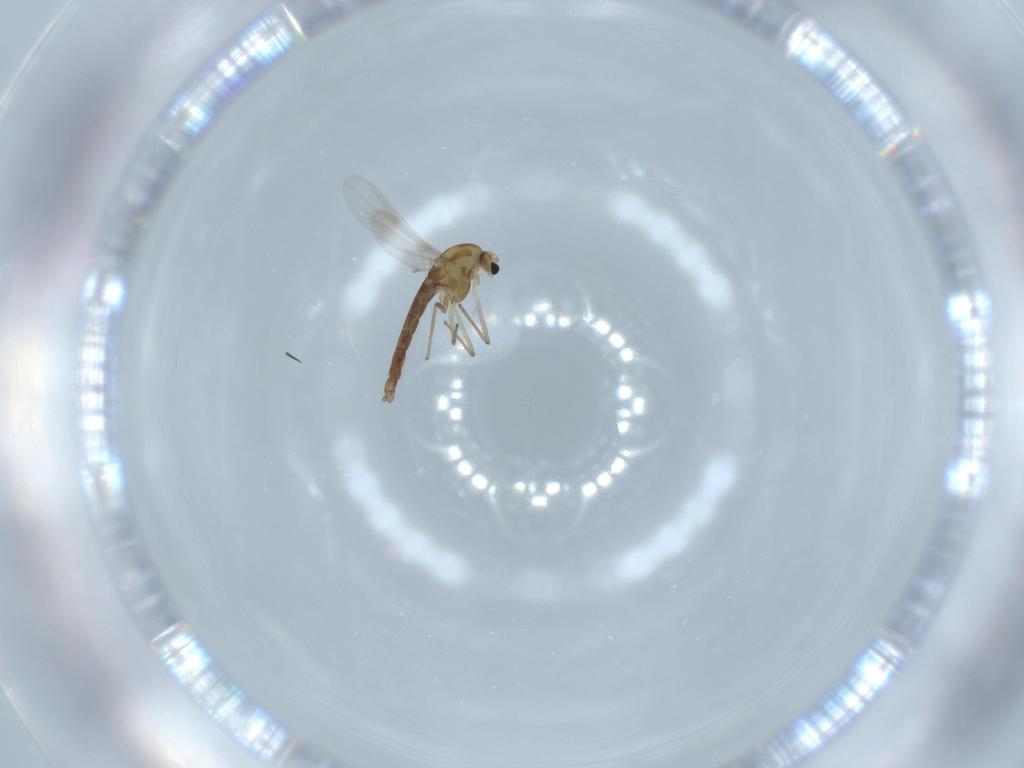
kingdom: Animalia
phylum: Arthropoda
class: Insecta
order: Diptera
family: Chironomidae
